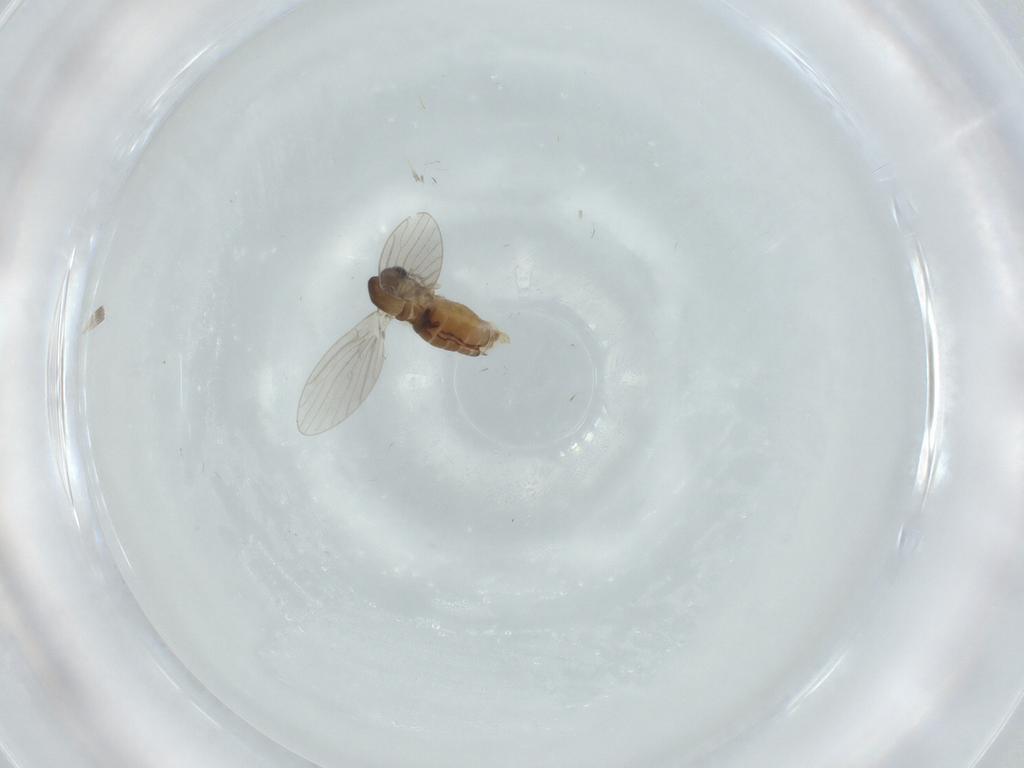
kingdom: Animalia
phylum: Arthropoda
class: Insecta
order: Diptera
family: Psychodidae
